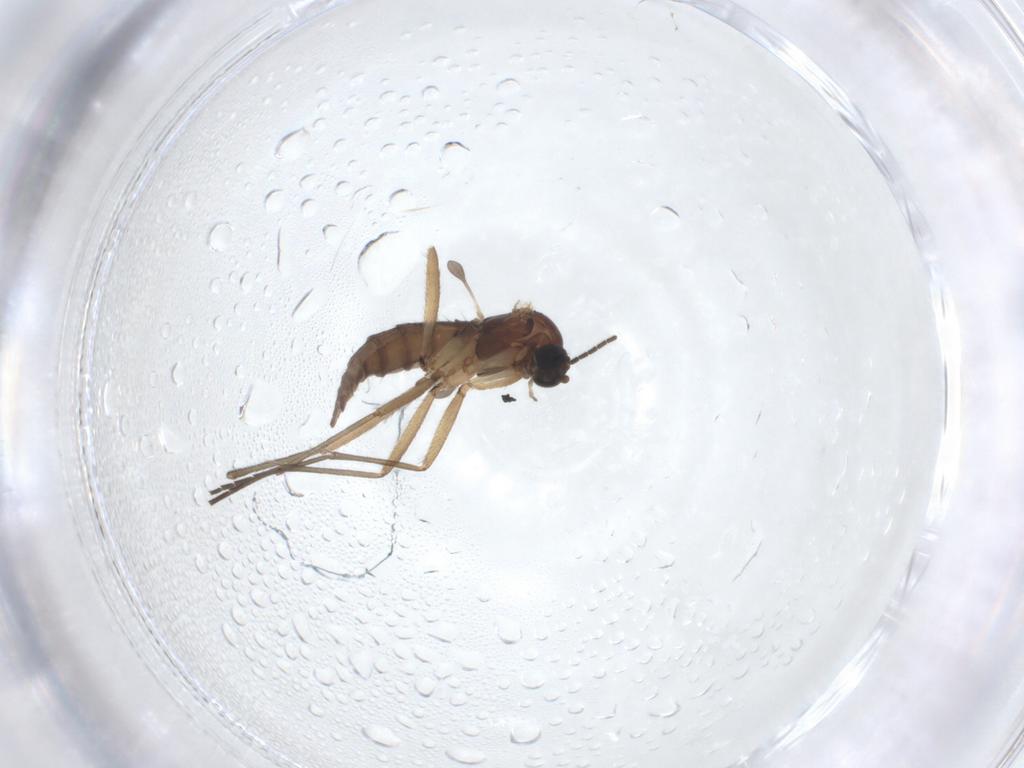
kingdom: Animalia
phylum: Arthropoda
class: Insecta
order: Diptera
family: Sciaridae
